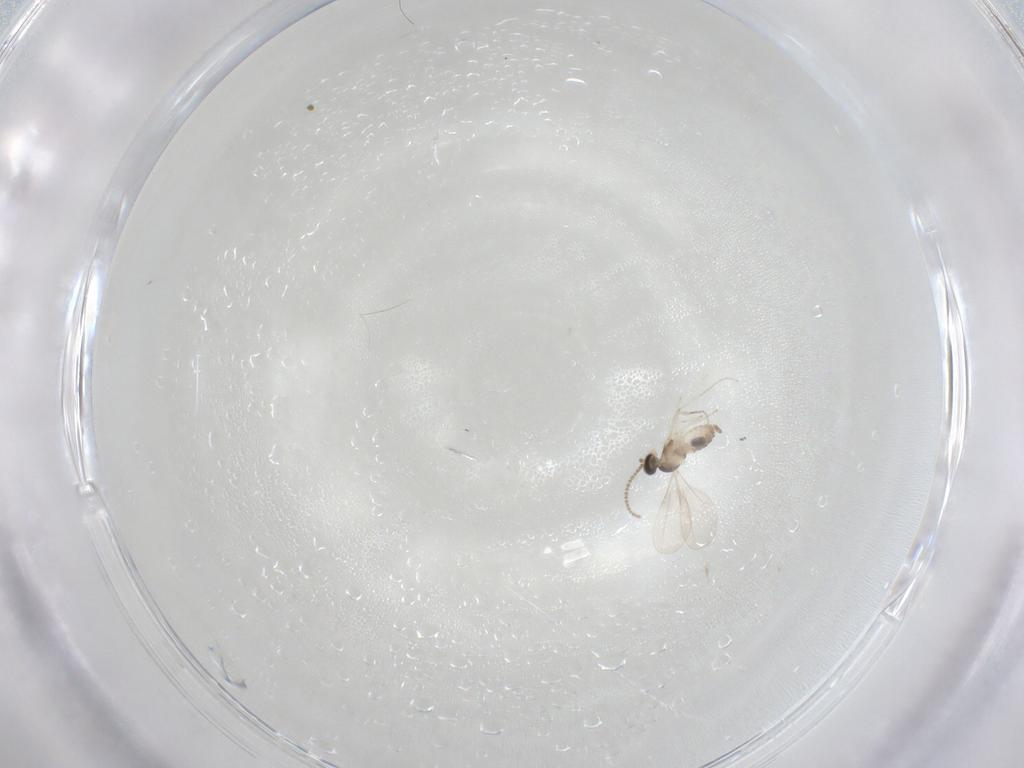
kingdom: Animalia
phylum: Arthropoda
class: Insecta
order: Diptera
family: Cecidomyiidae
